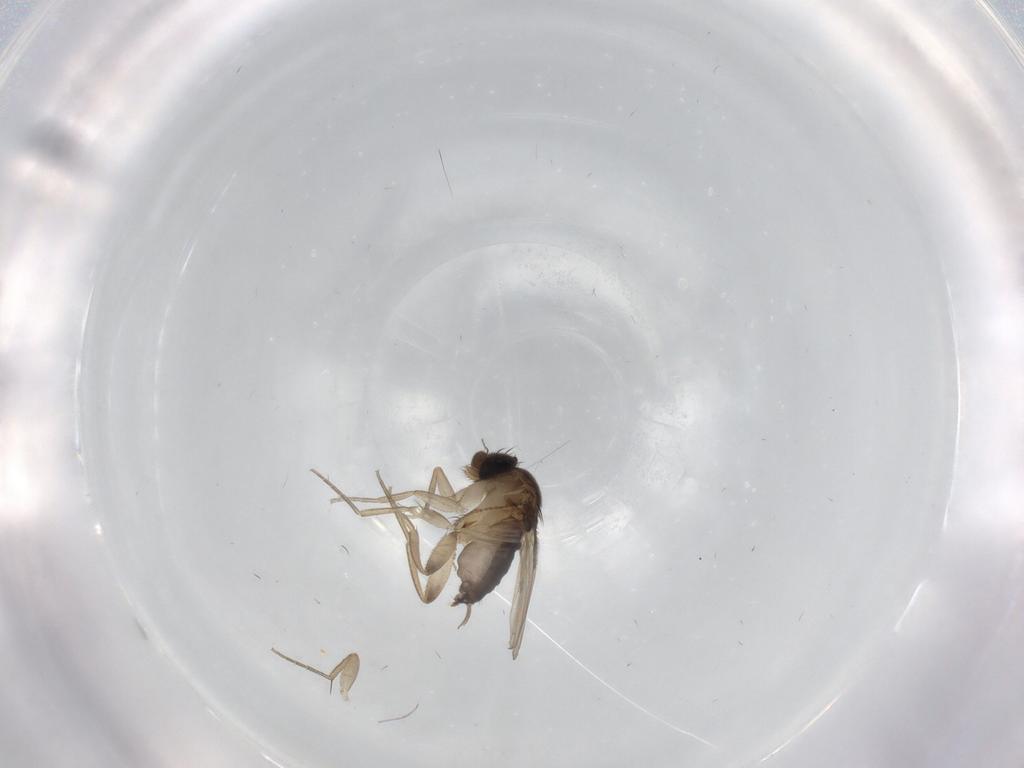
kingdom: Animalia
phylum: Arthropoda
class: Insecta
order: Diptera
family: Phoridae
